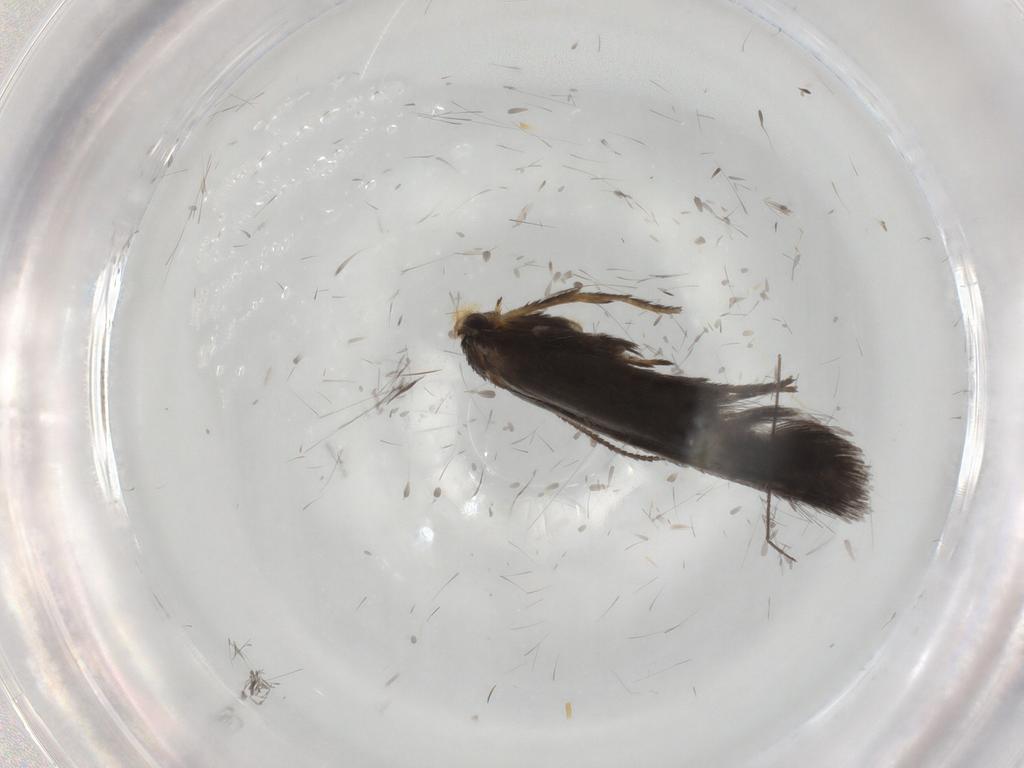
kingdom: Animalia
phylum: Arthropoda
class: Insecta
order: Lepidoptera
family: Nepticulidae
